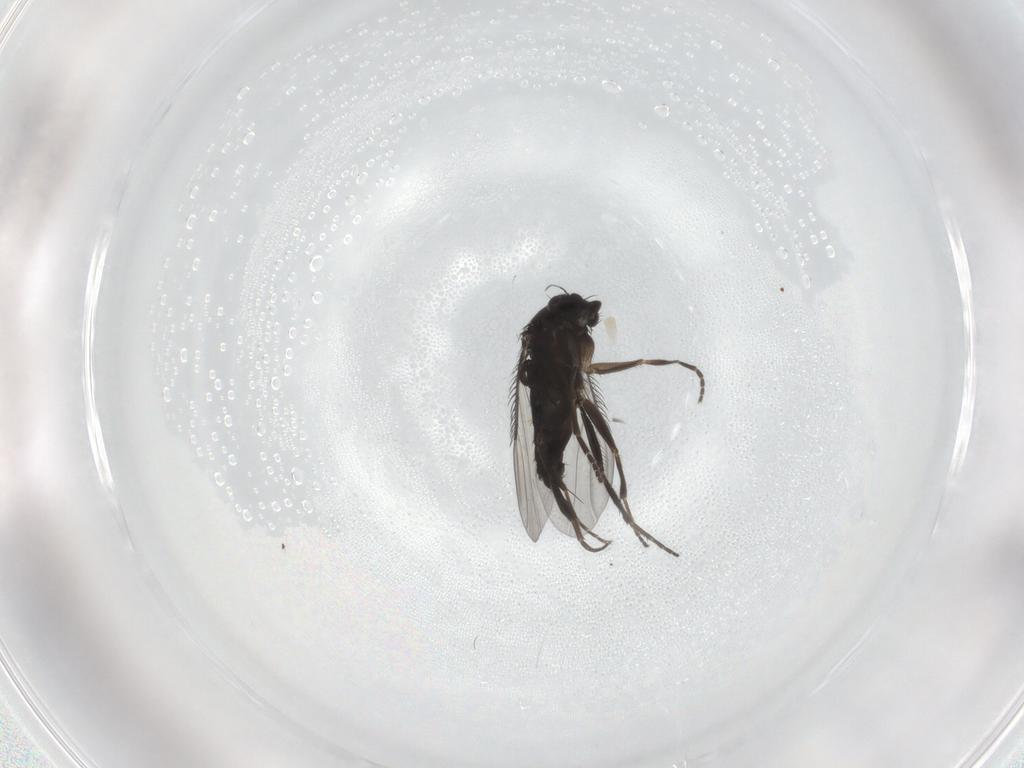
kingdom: Animalia
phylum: Arthropoda
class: Insecta
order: Diptera
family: Phoridae
